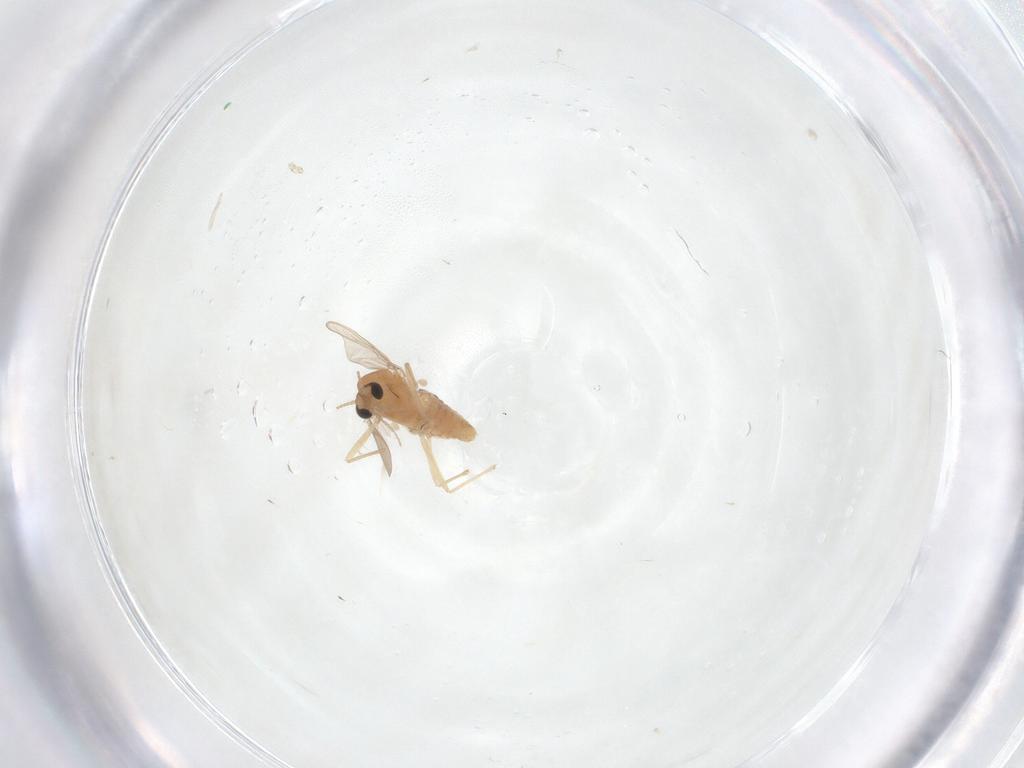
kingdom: Animalia
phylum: Arthropoda
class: Insecta
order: Diptera
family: Chironomidae
